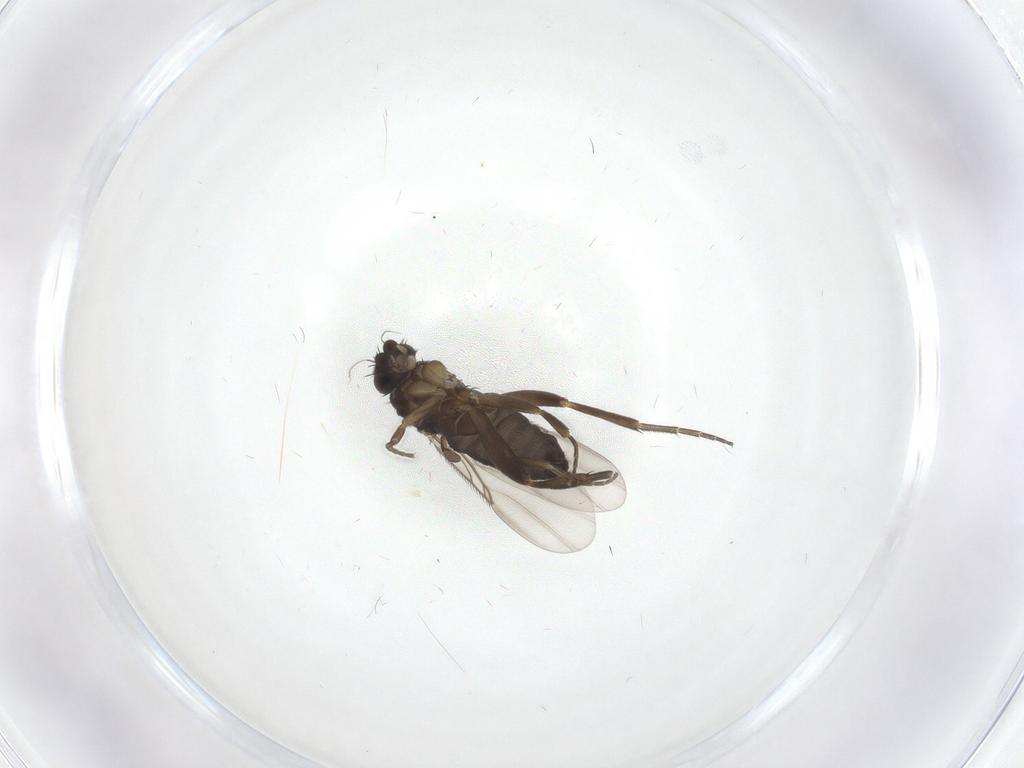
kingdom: Animalia
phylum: Arthropoda
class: Insecta
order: Diptera
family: Phoridae
